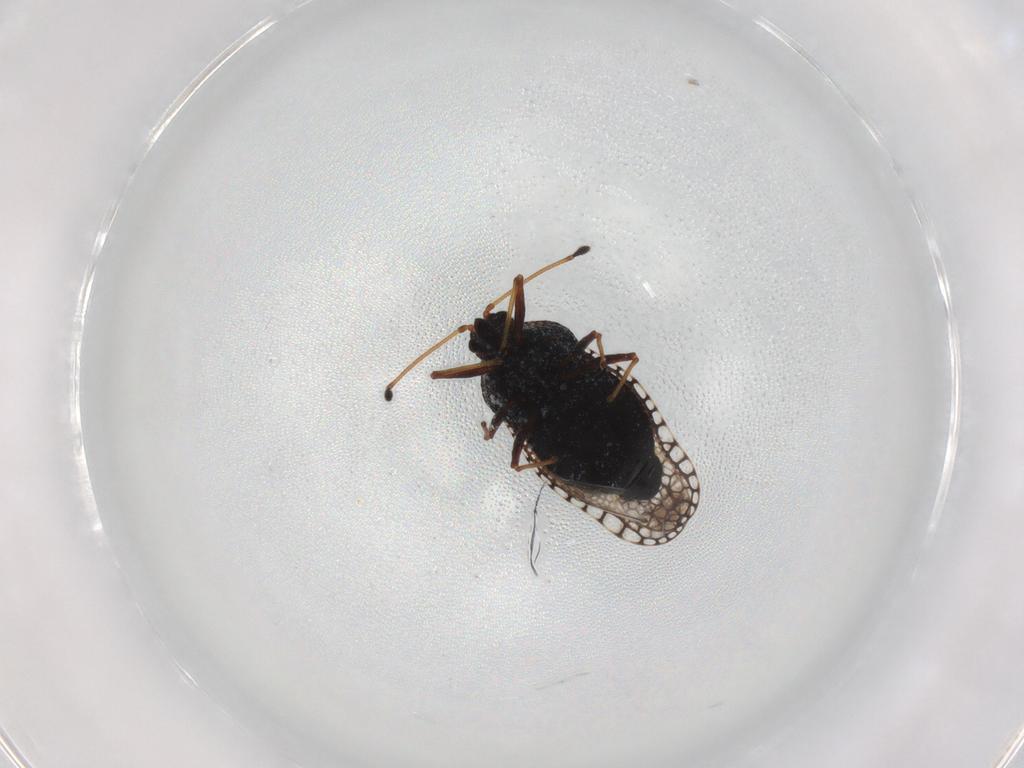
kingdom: Animalia
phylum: Arthropoda
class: Insecta
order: Hemiptera
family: Tingidae
